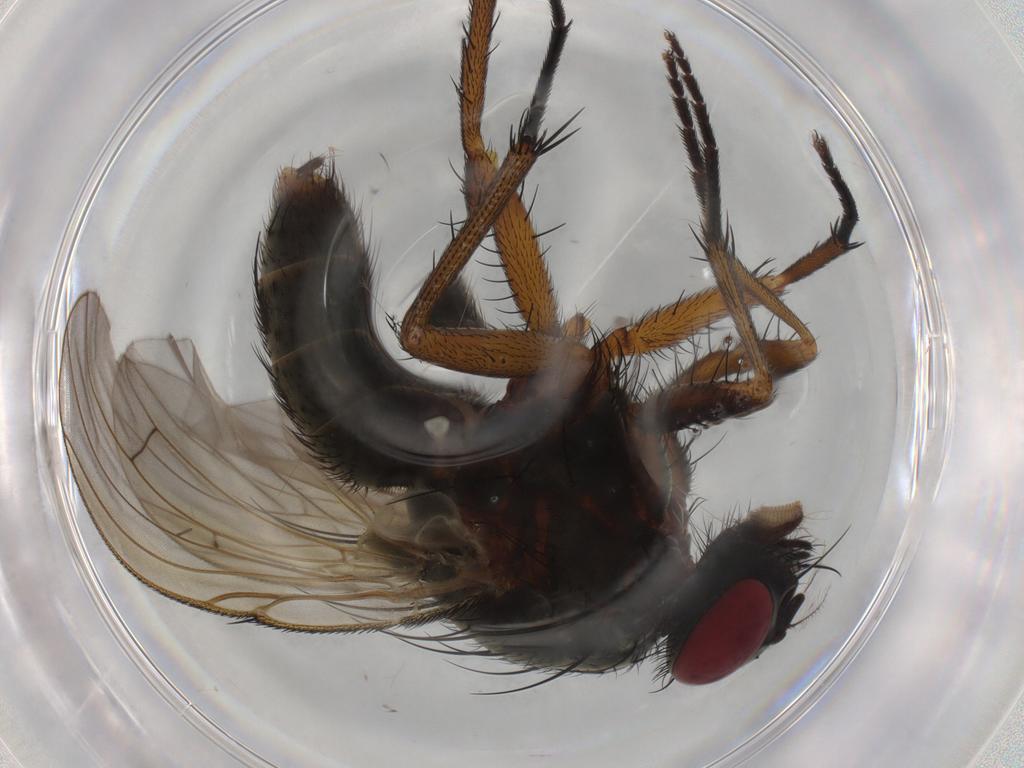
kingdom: Animalia
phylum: Arthropoda
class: Insecta
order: Diptera
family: Muscidae
